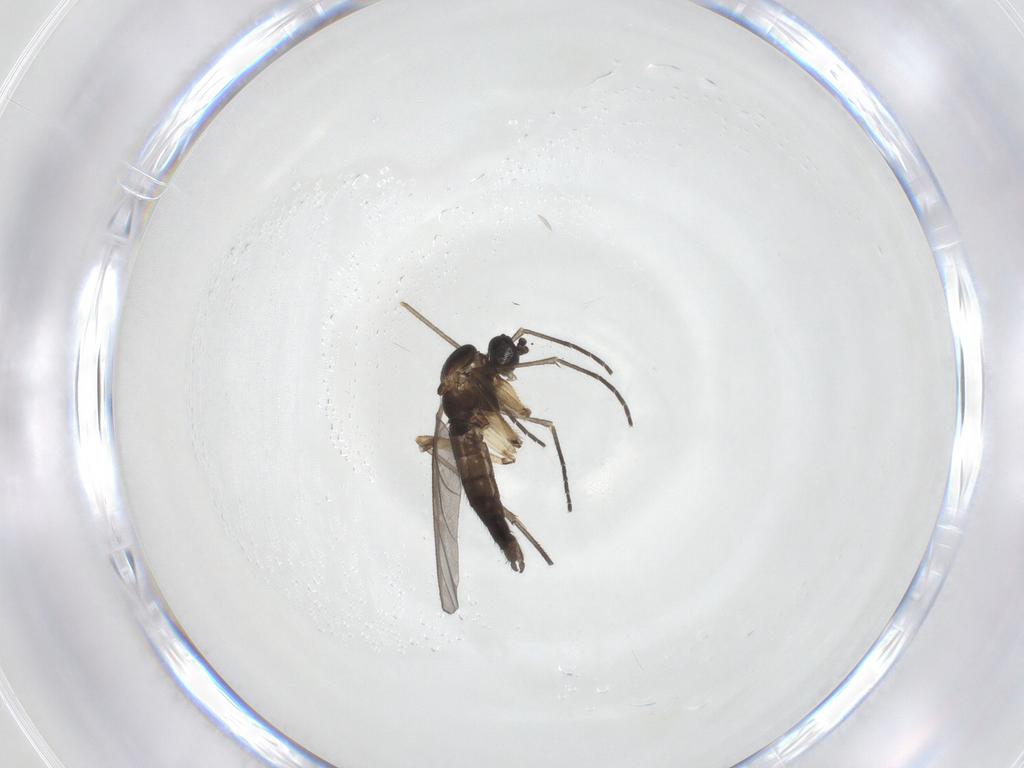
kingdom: Animalia
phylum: Arthropoda
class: Insecta
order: Diptera
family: Sciaridae
